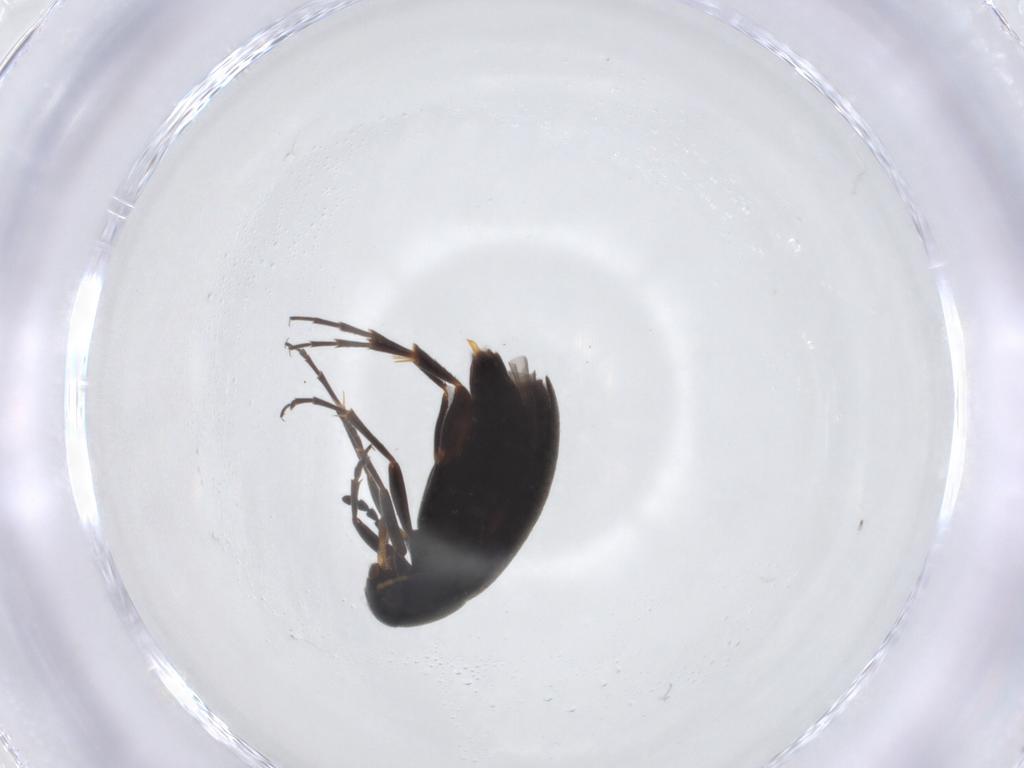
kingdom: Animalia
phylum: Arthropoda
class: Insecta
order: Coleoptera
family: Scraptiidae
